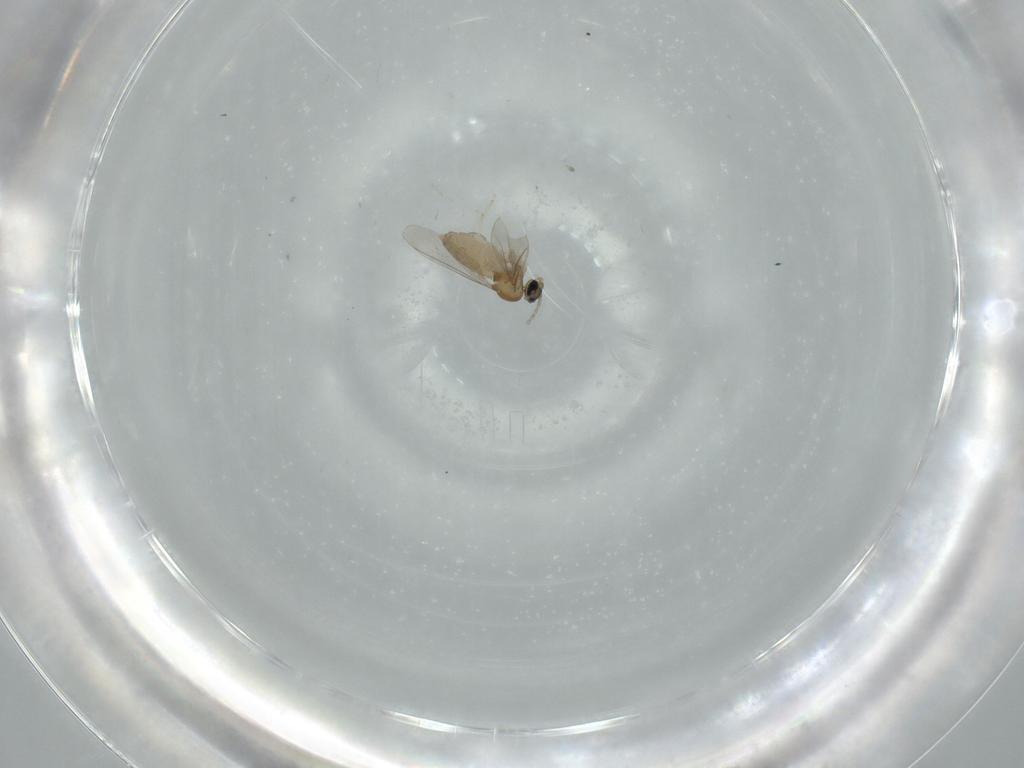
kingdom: Animalia
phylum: Arthropoda
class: Insecta
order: Diptera
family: Cecidomyiidae
